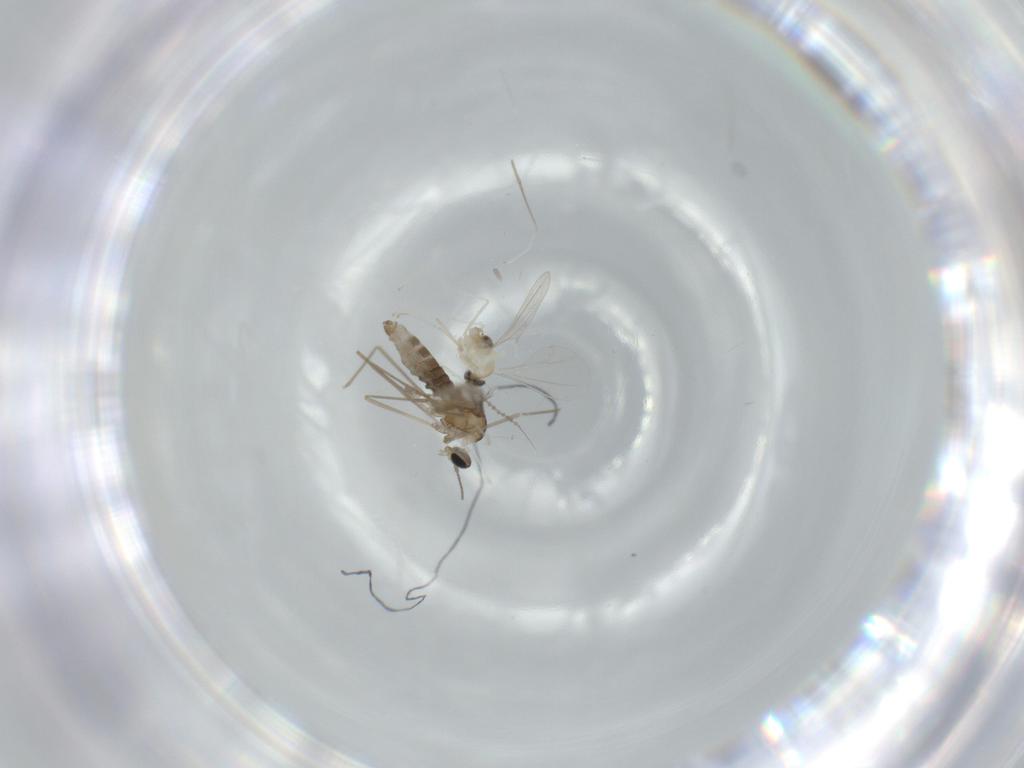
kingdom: Animalia
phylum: Arthropoda
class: Insecta
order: Diptera
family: Cecidomyiidae
